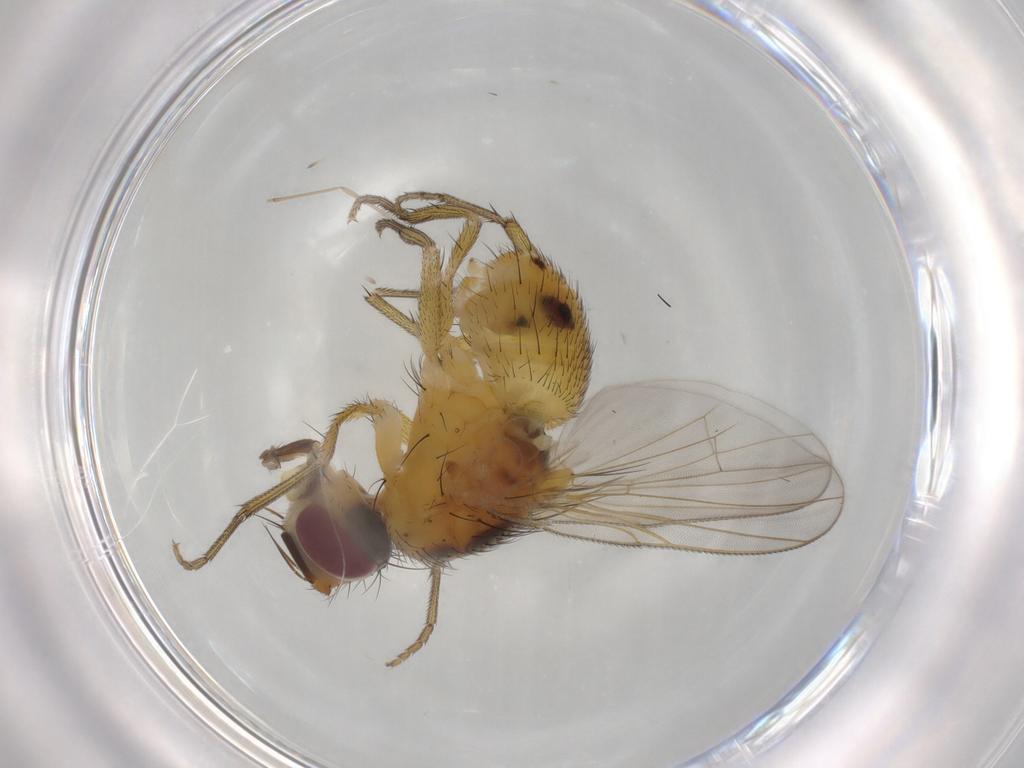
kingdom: Animalia
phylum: Arthropoda
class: Insecta
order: Diptera
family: Muscidae
